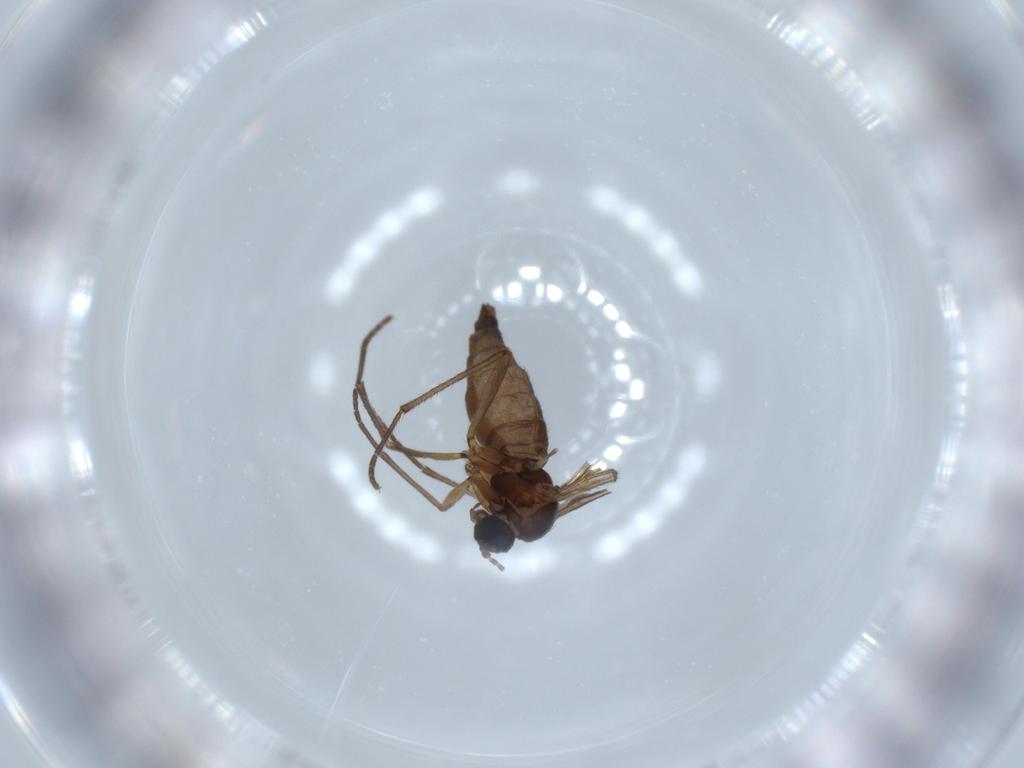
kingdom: Animalia
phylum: Arthropoda
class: Insecta
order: Diptera
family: Sciaridae
